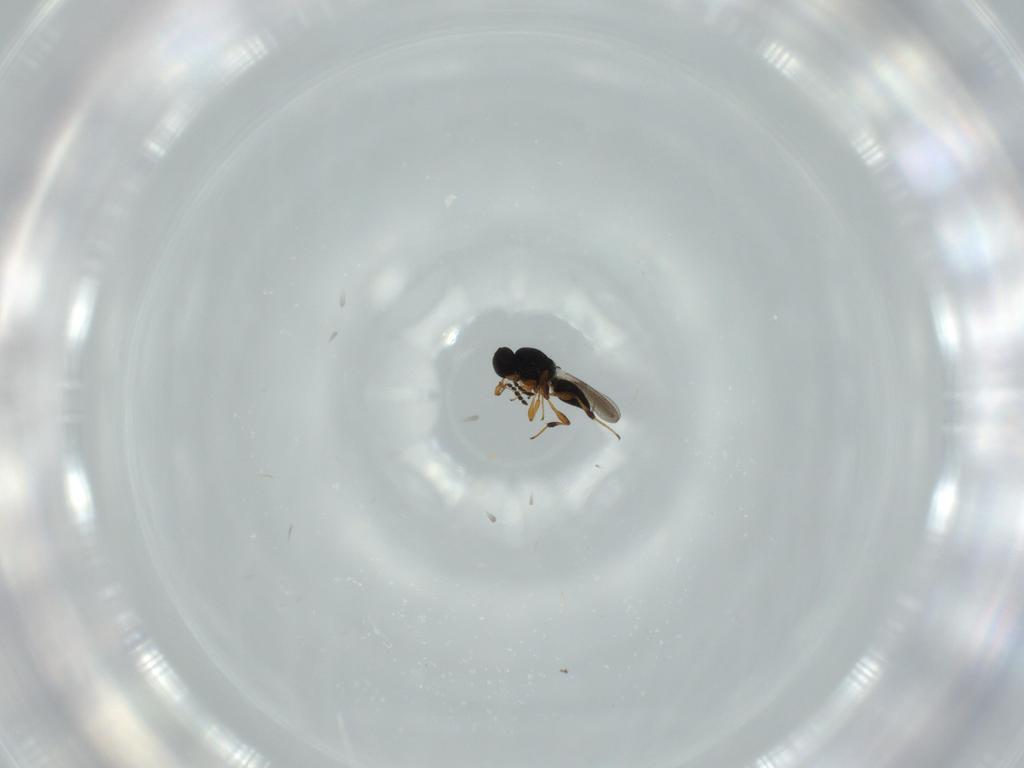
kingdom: Animalia
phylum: Arthropoda
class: Insecta
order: Hymenoptera
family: Platygastridae
